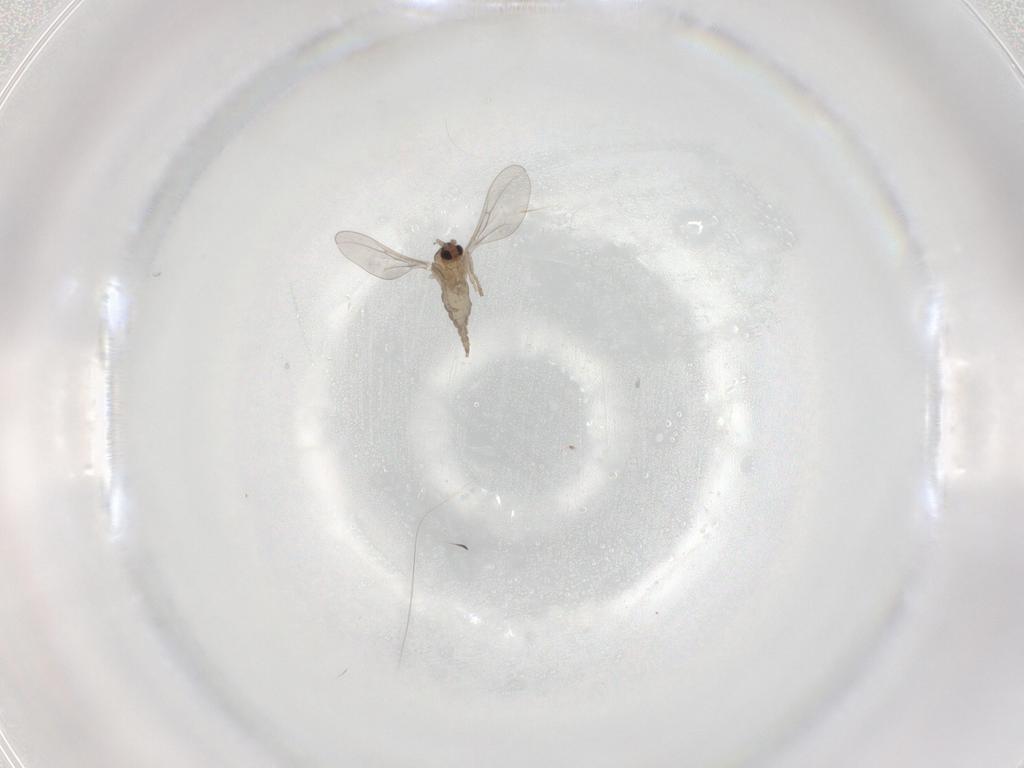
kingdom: Animalia
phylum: Arthropoda
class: Insecta
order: Diptera
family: Cecidomyiidae
